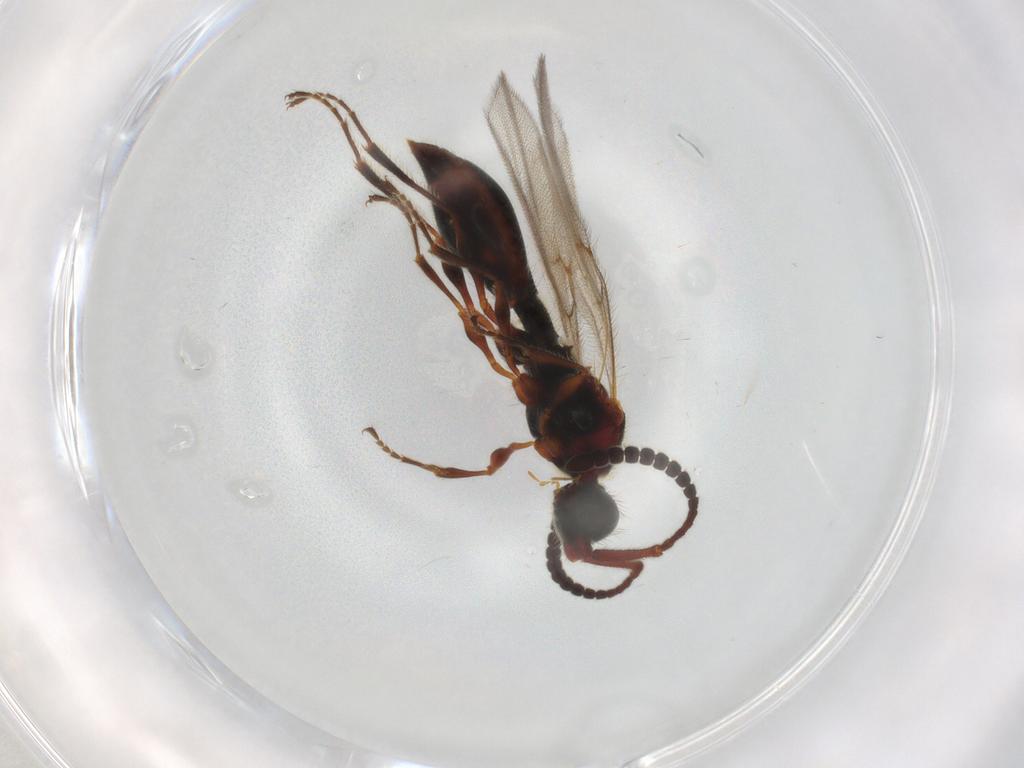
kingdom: Animalia
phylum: Arthropoda
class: Insecta
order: Hymenoptera
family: Diapriidae
